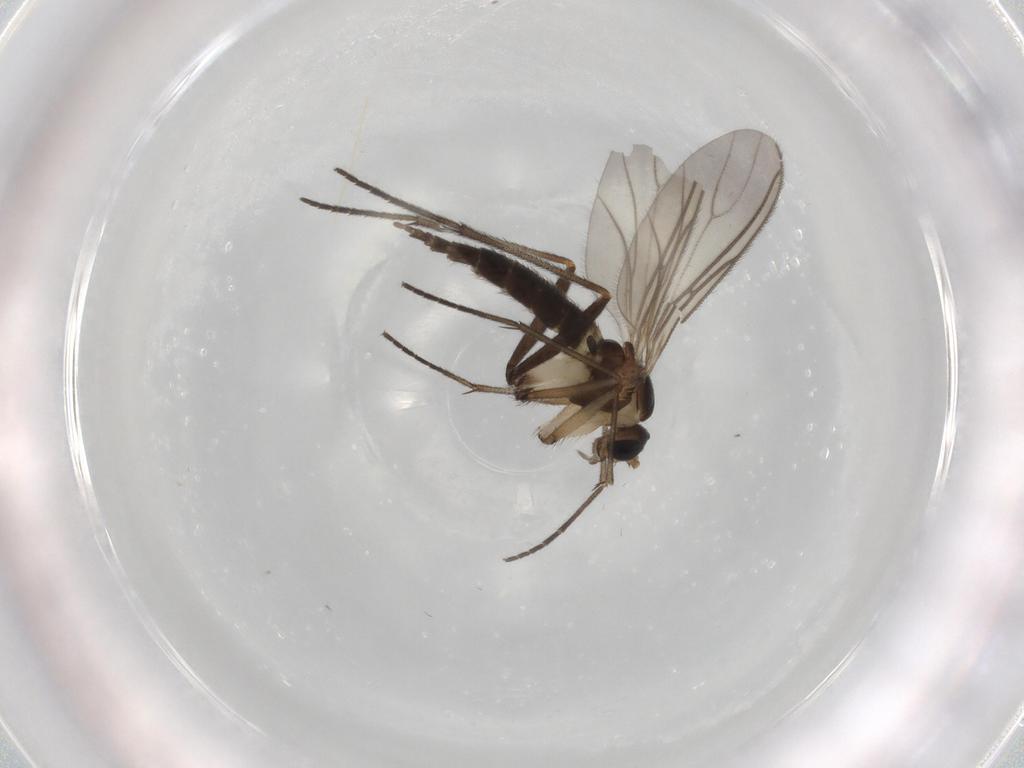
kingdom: Animalia
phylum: Arthropoda
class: Insecta
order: Diptera
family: Sciaridae
